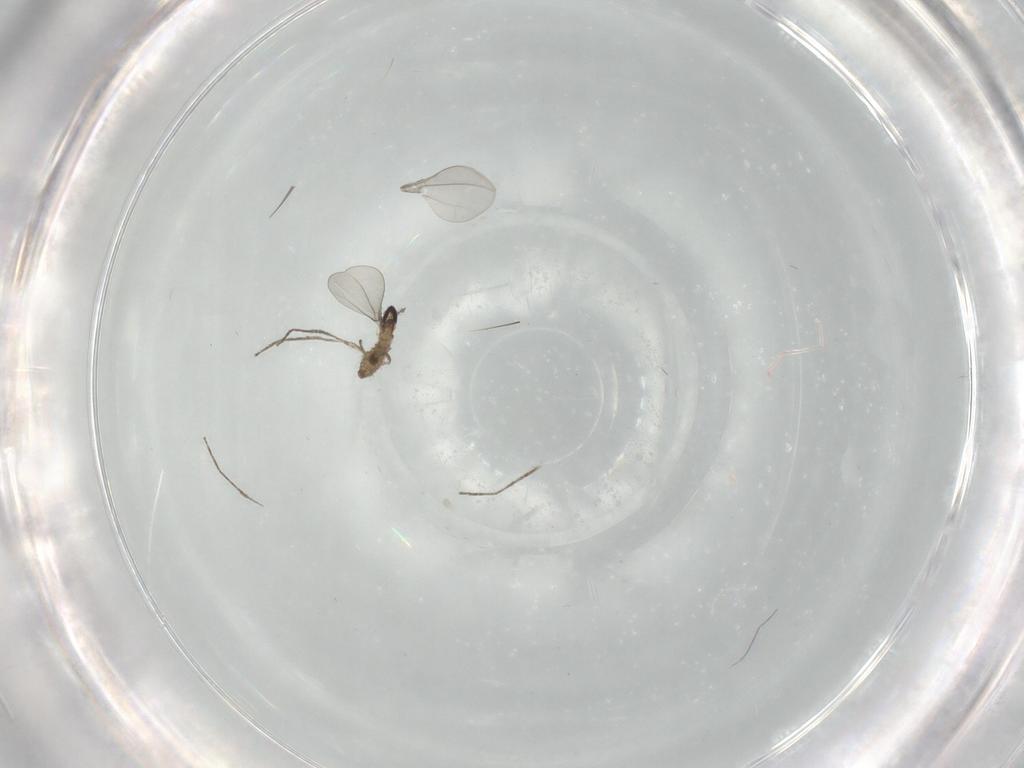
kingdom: Animalia
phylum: Arthropoda
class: Insecta
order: Diptera
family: Cecidomyiidae
